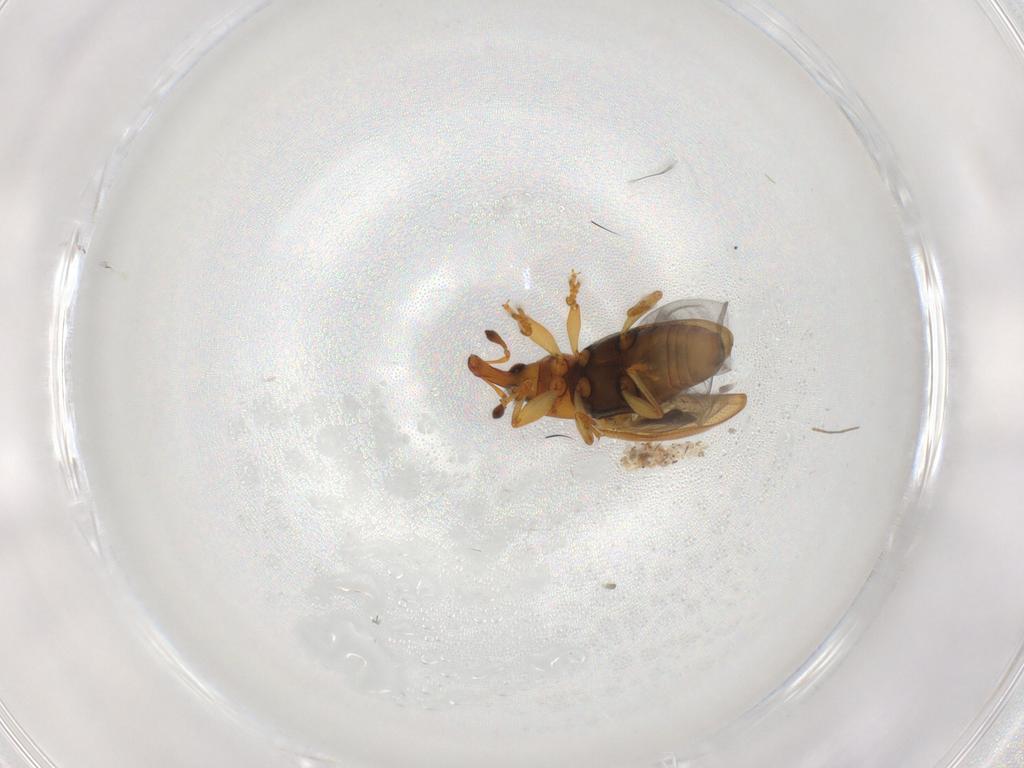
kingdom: Animalia
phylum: Arthropoda
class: Insecta
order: Coleoptera
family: Curculionidae
